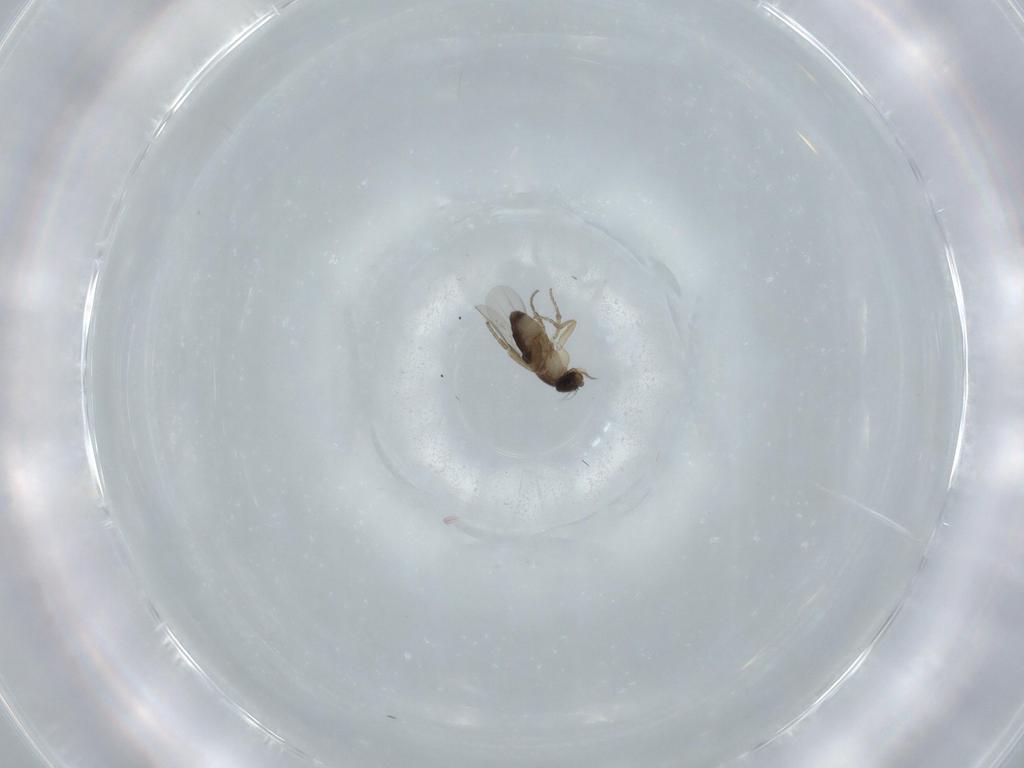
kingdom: Animalia
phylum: Arthropoda
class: Insecta
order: Diptera
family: Phoridae
